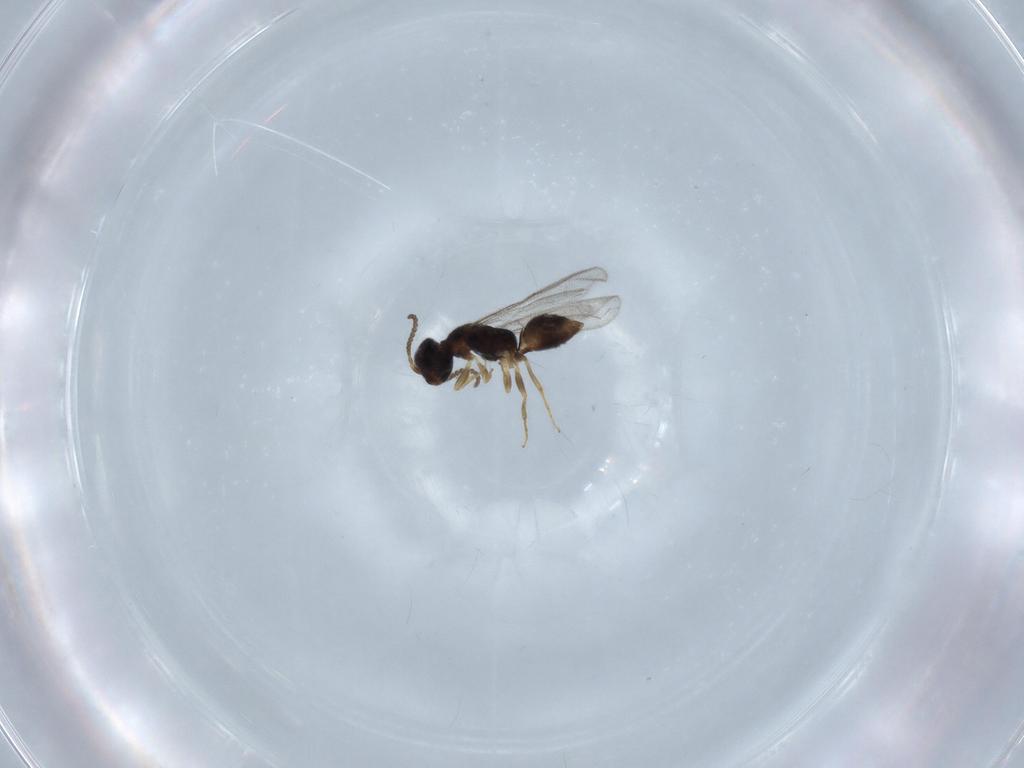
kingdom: Animalia
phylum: Arthropoda
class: Insecta
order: Hymenoptera
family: Bethylidae
